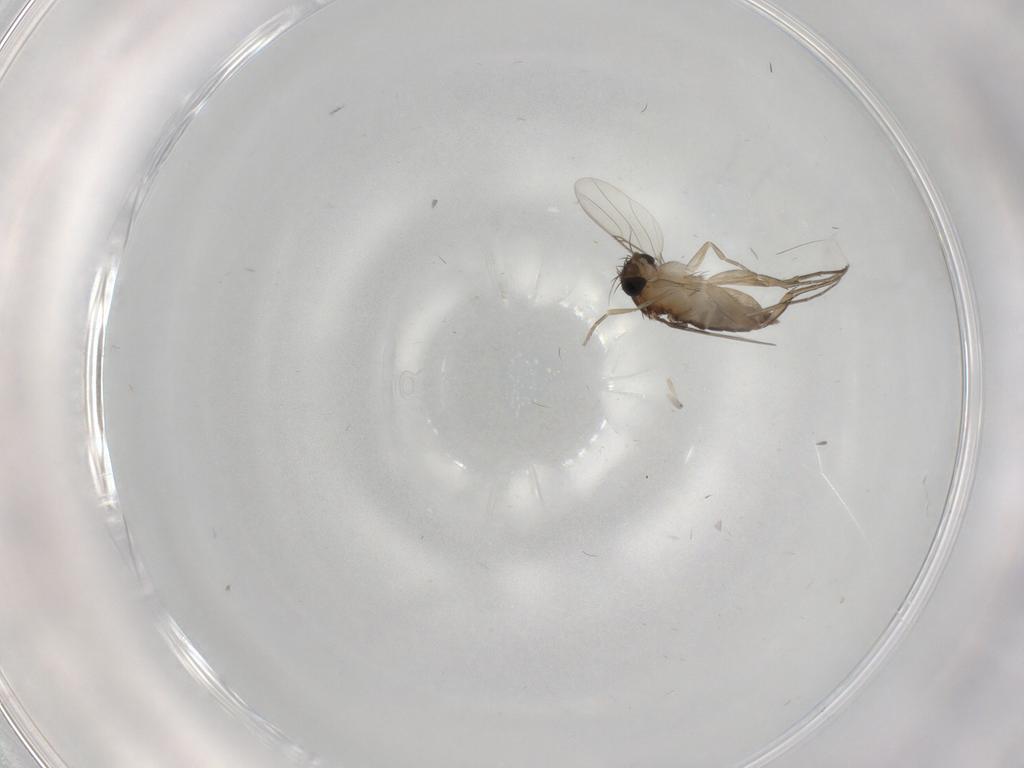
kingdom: Animalia
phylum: Arthropoda
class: Insecta
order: Diptera
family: Phoridae
